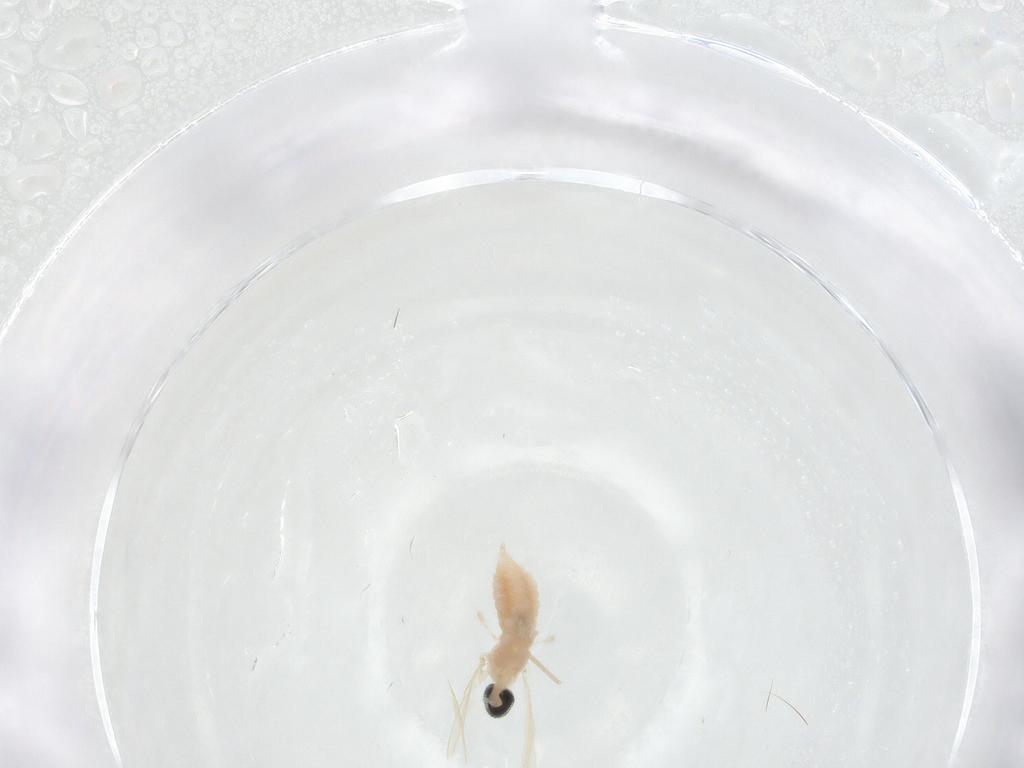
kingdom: Animalia
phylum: Arthropoda
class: Insecta
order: Diptera
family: Cecidomyiidae
